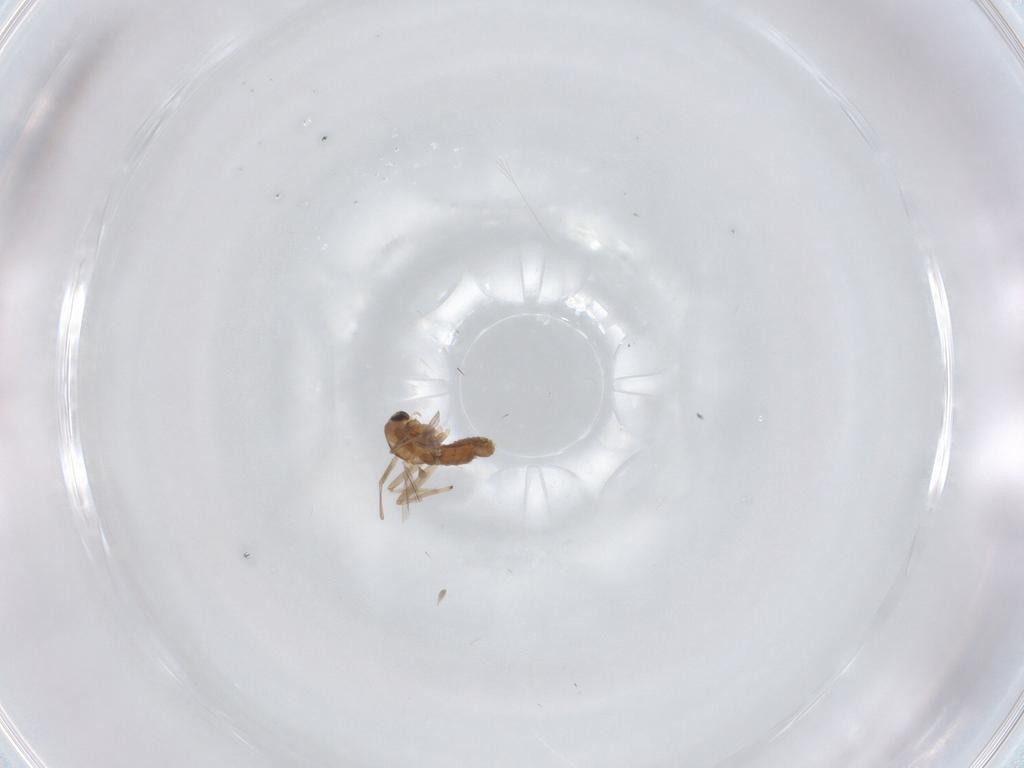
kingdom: Animalia
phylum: Arthropoda
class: Insecta
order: Diptera
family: Chironomidae
